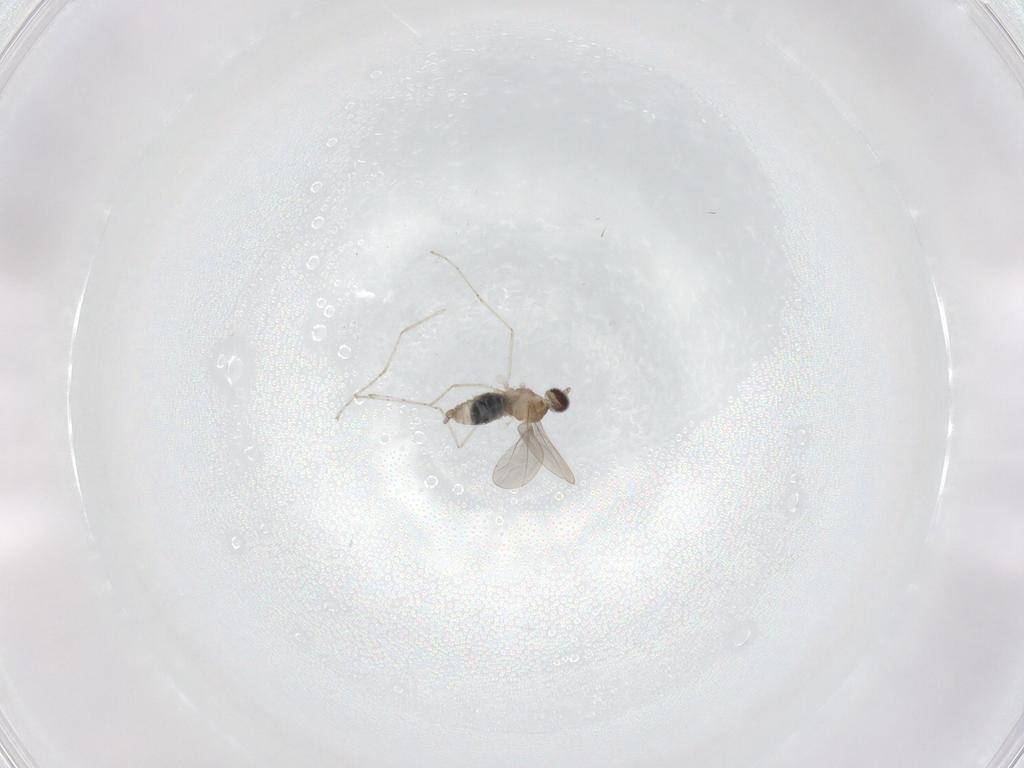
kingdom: Animalia
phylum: Arthropoda
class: Insecta
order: Diptera
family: Cecidomyiidae
